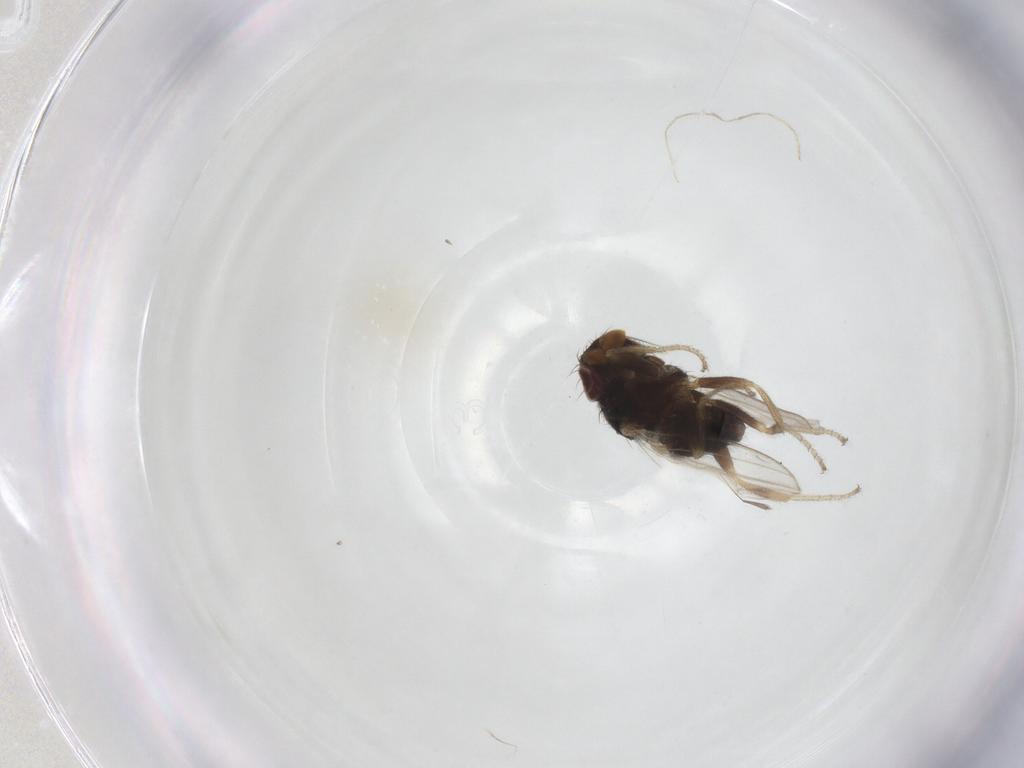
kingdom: Animalia
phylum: Arthropoda
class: Insecta
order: Diptera
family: Milichiidae
